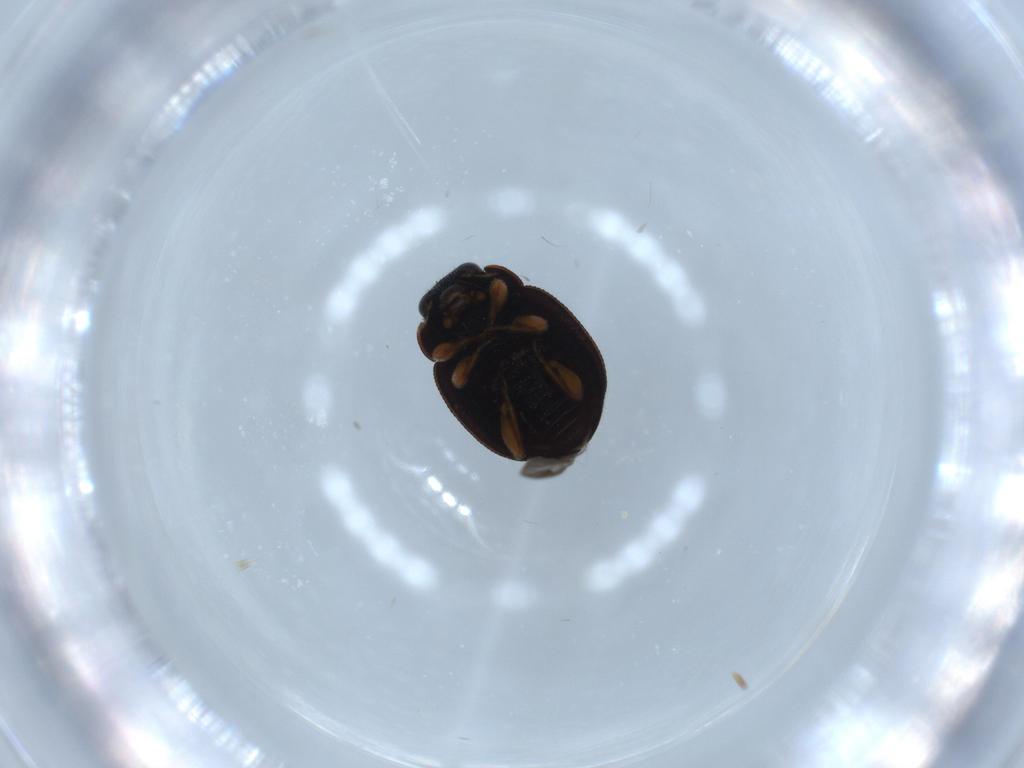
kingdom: Animalia
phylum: Arthropoda
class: Insecta
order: Coleoptera
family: Coccinellidae
